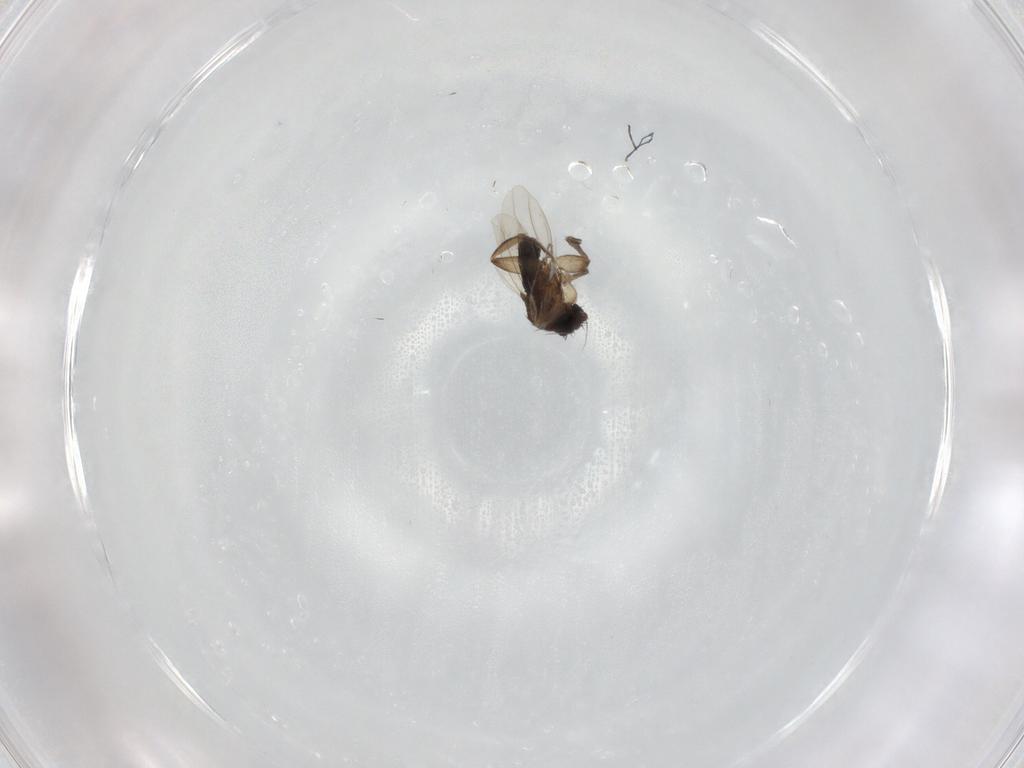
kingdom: Animalia
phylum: Arthropoda
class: Insecta
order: Diptera
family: Phoridae
